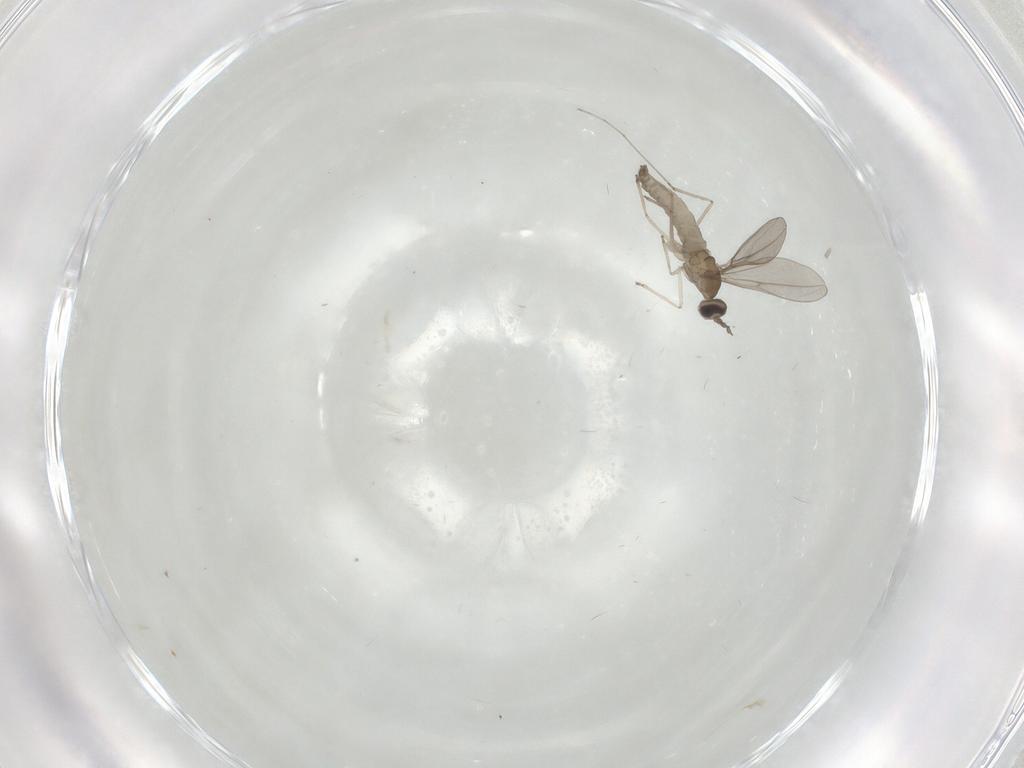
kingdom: Animalia
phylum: Arthropoda
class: Insecta
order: Diptera
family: Cecidomyiidae
